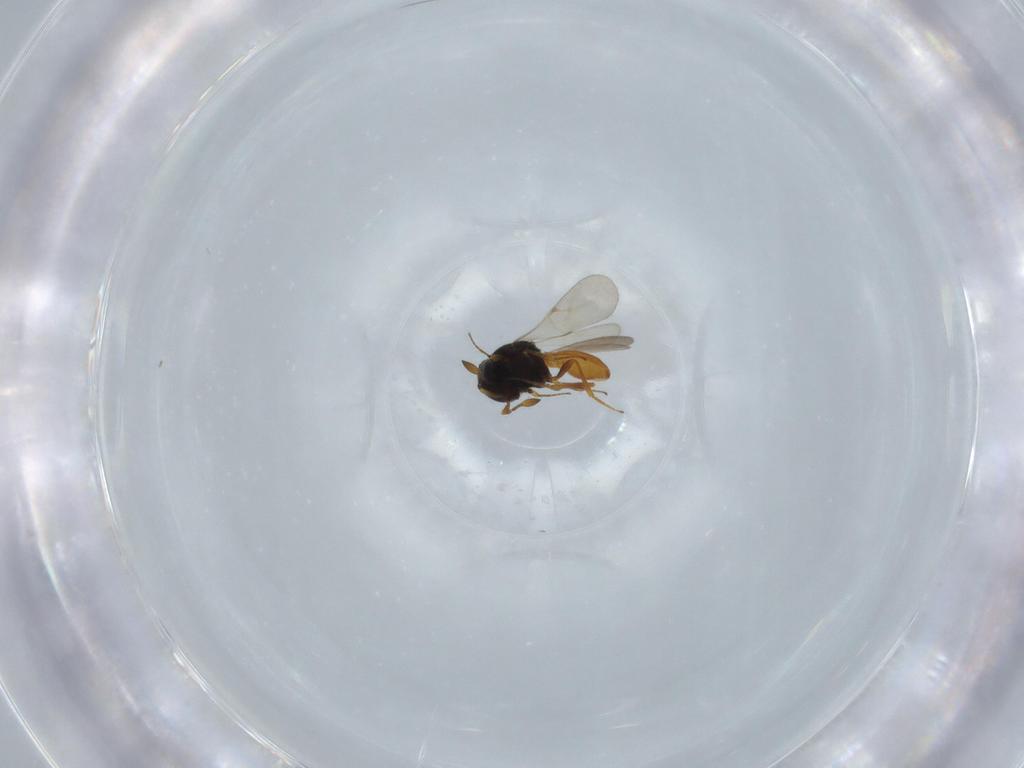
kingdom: Animalia
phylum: Arthropoda
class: Insecta
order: Hymenoptera
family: Scelionidae
